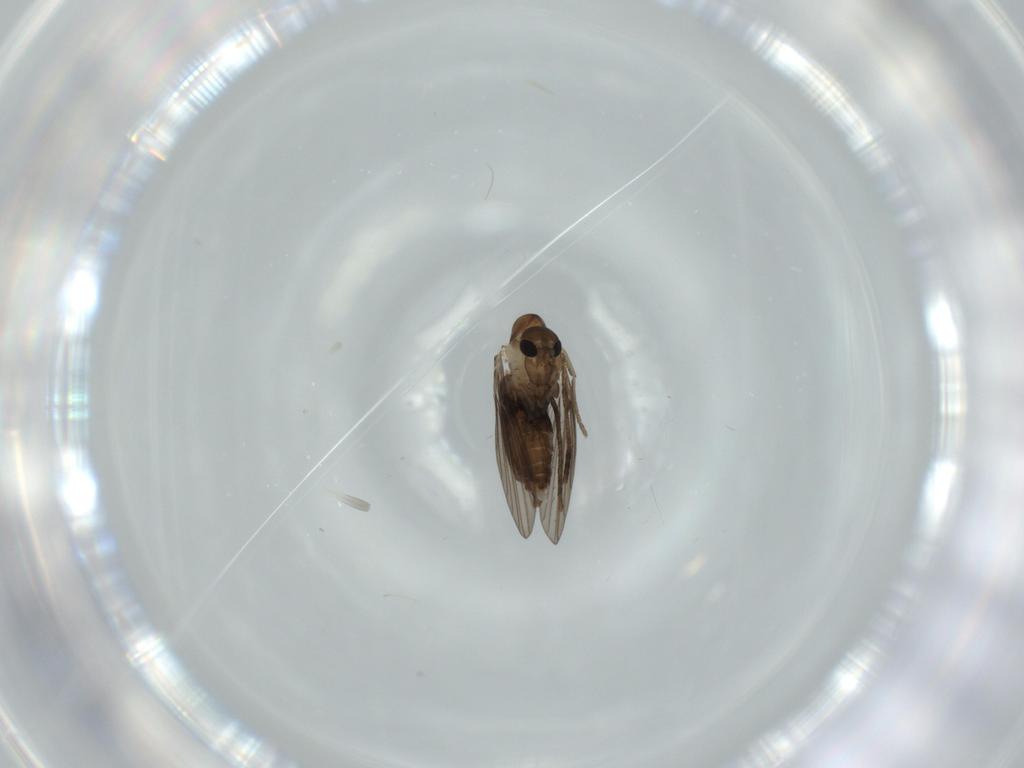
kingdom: Animalia
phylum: Arthropoda
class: Insecta
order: Diptera
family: Psychodidae
